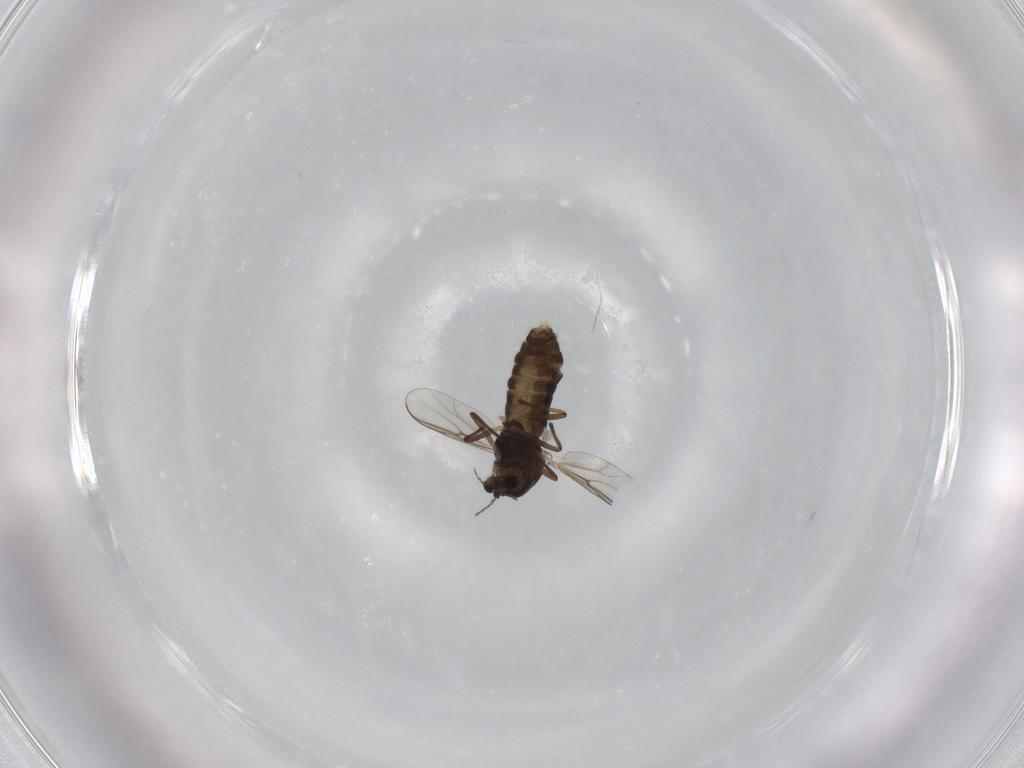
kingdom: Animalia
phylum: Arthropoda
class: Insecta
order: Diptera
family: Chironomidae
